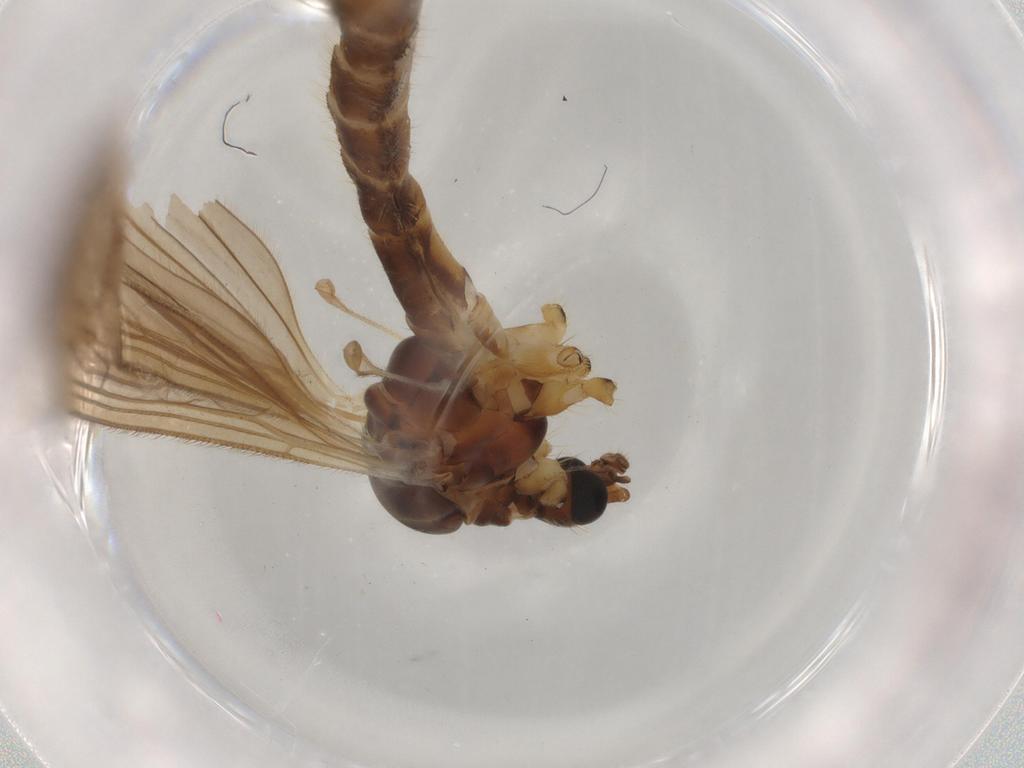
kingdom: Animalia
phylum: Arthropoda
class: Insecta
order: Diptera
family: Limoniidae
